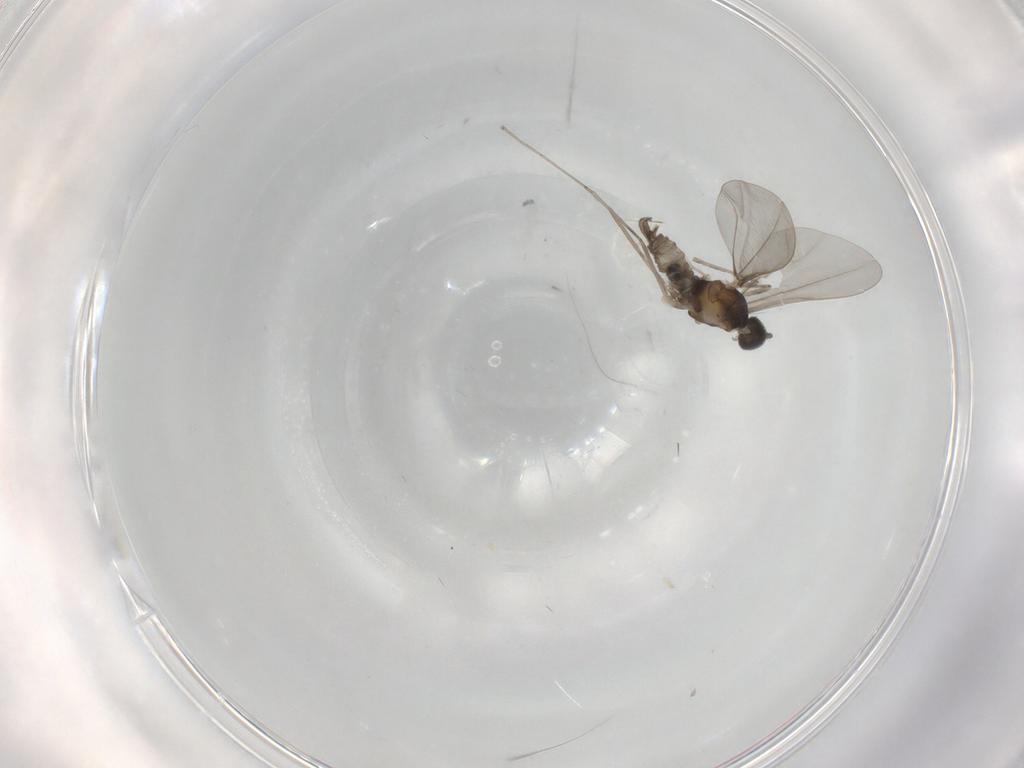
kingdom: Animalia
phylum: Arthropoda
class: Insecta
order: Diptera
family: Cecidomyiidae
